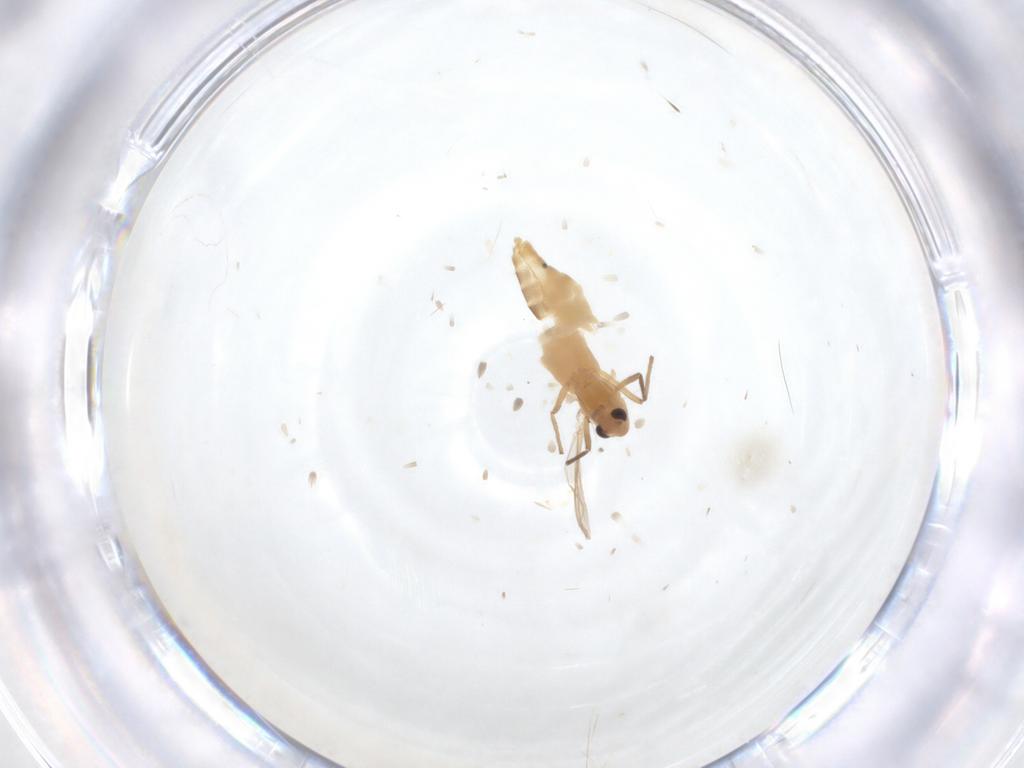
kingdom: Animalia
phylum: Arthropoda
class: Insecta
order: Diptera
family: Chironomidae
